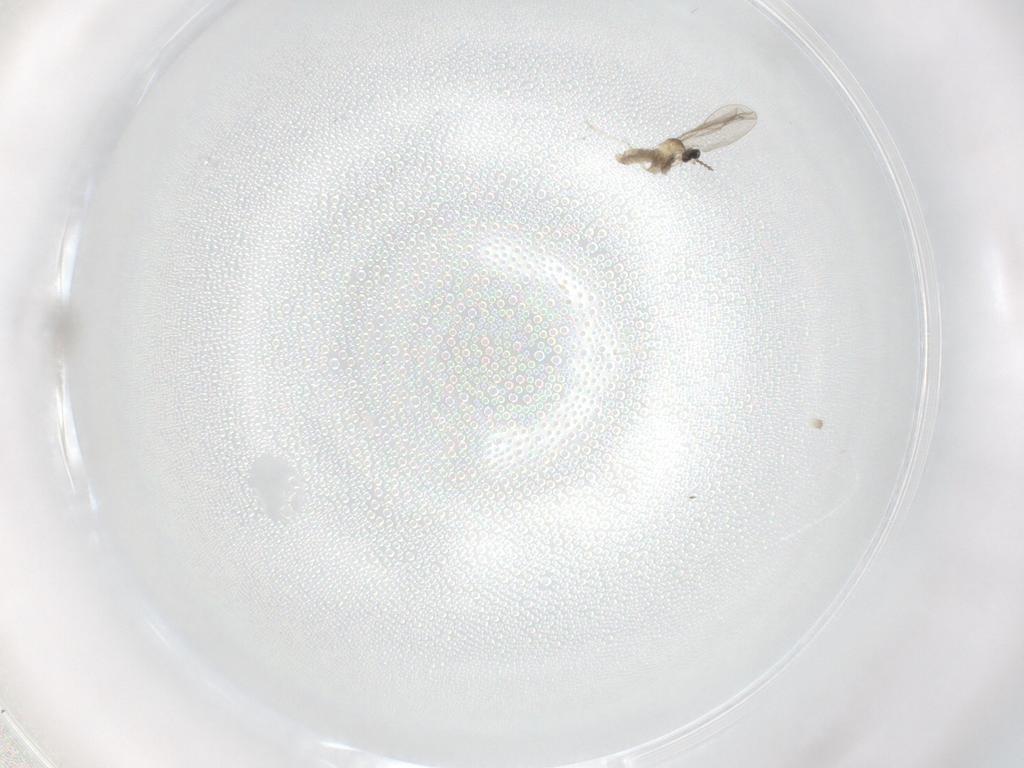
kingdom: Animalia
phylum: Arthropoda
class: Insecta
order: Diptera
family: Cecidomyiidae
